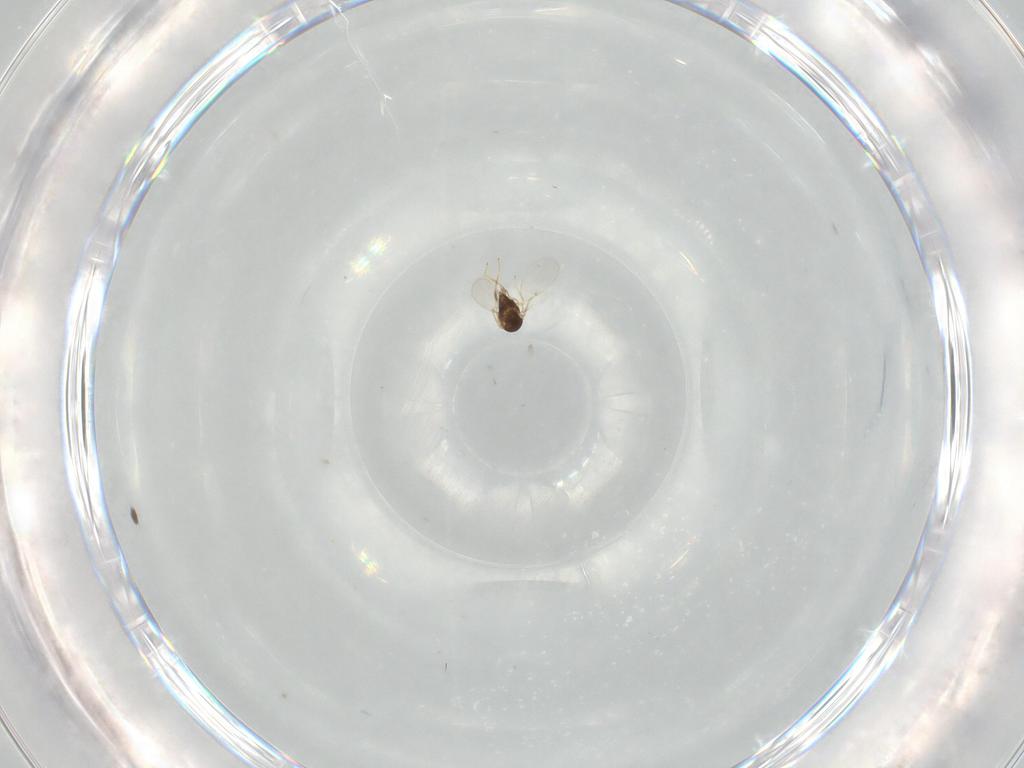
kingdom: Animalia
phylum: Arthropoda
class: Insecta
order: Hymenoptera
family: Encyrtidae
